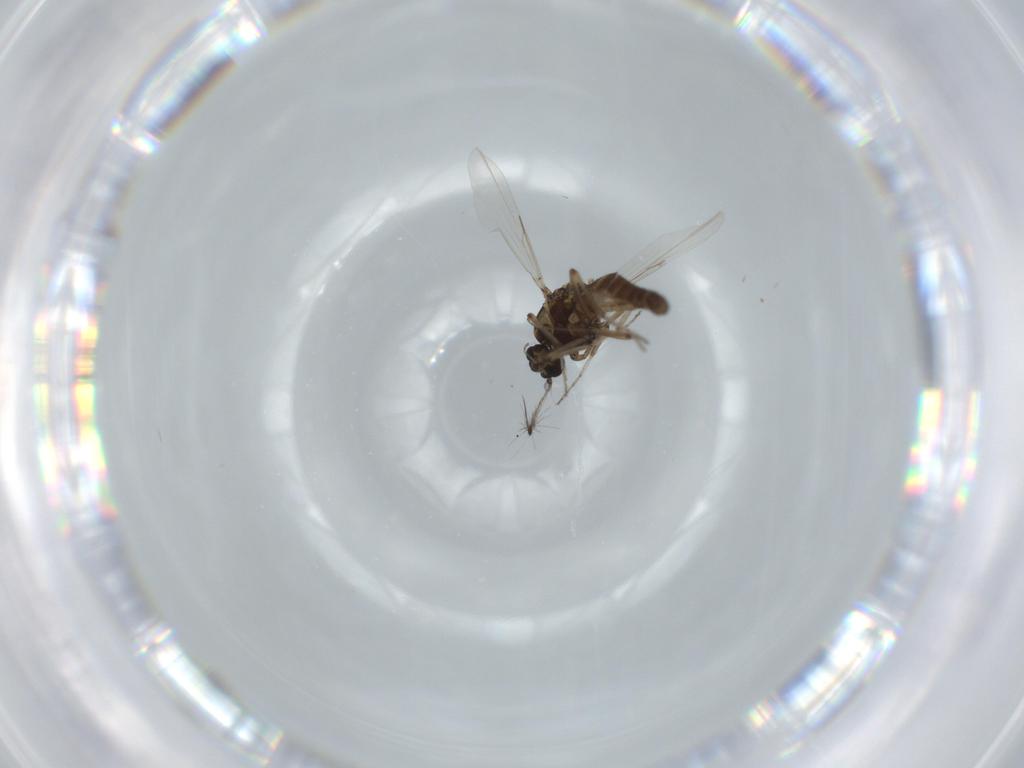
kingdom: Animalia
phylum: Arthropoda
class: Insecta
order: Diptera
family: Ceratopogonidae
